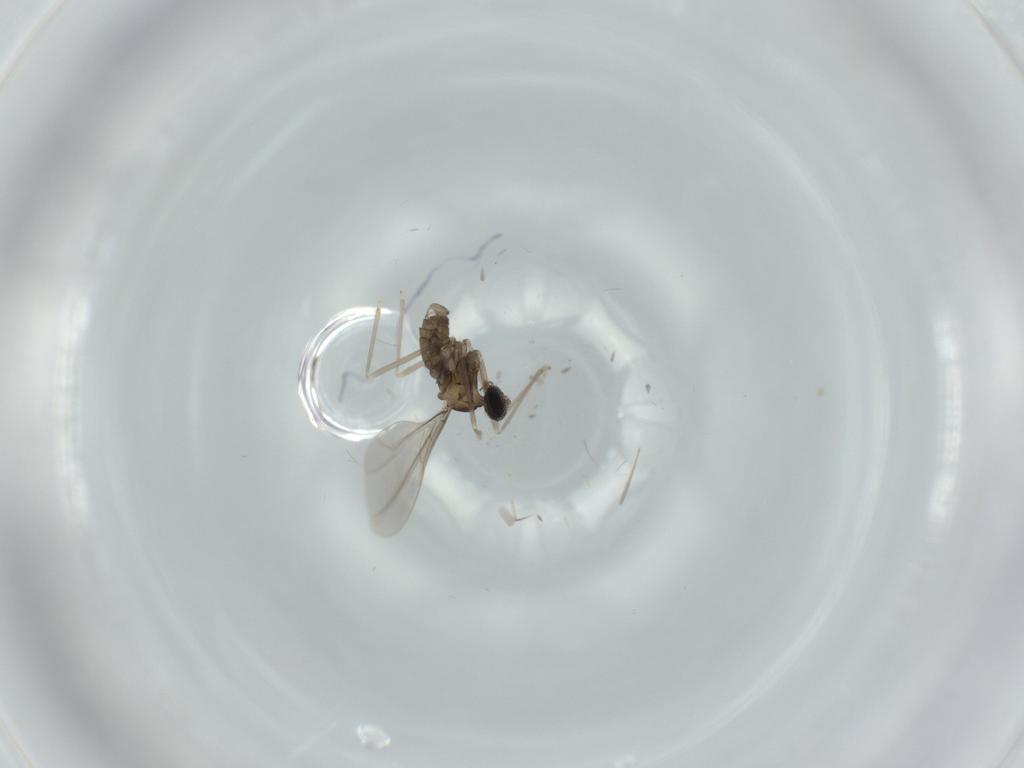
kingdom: Animalia
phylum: Arthropoda
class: Insecta
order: Diptera
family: Cecidomyiidae
